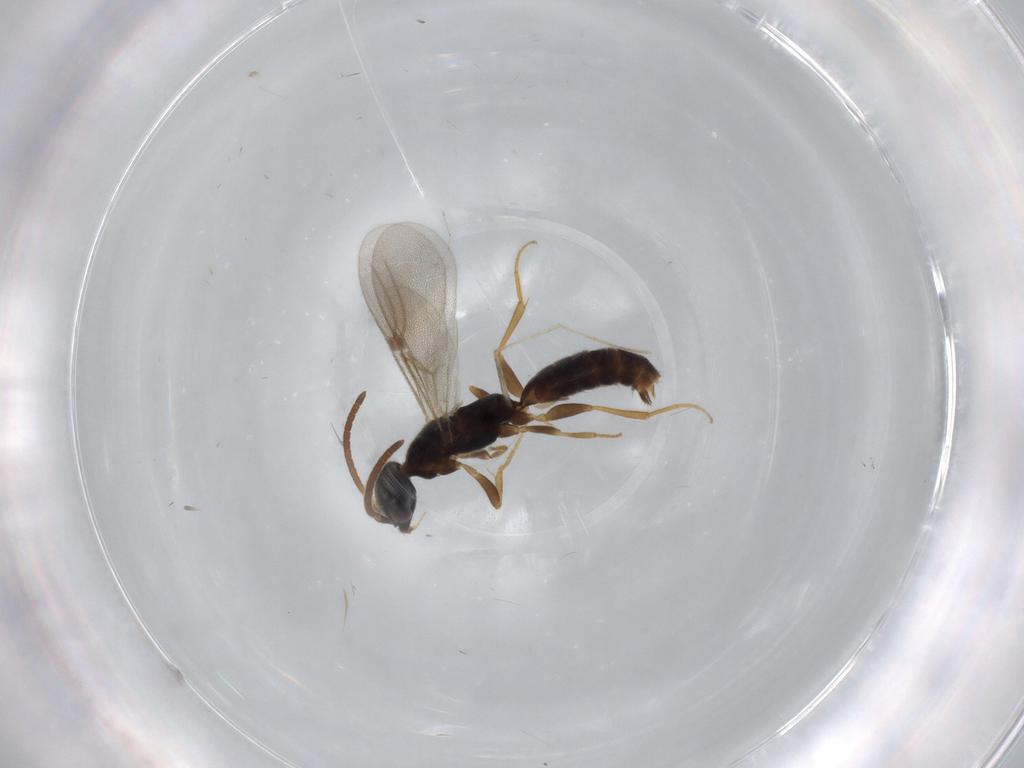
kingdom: Animalia
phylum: Arthropoda
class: Insecta
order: Hymenoptera
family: Bethylidae
